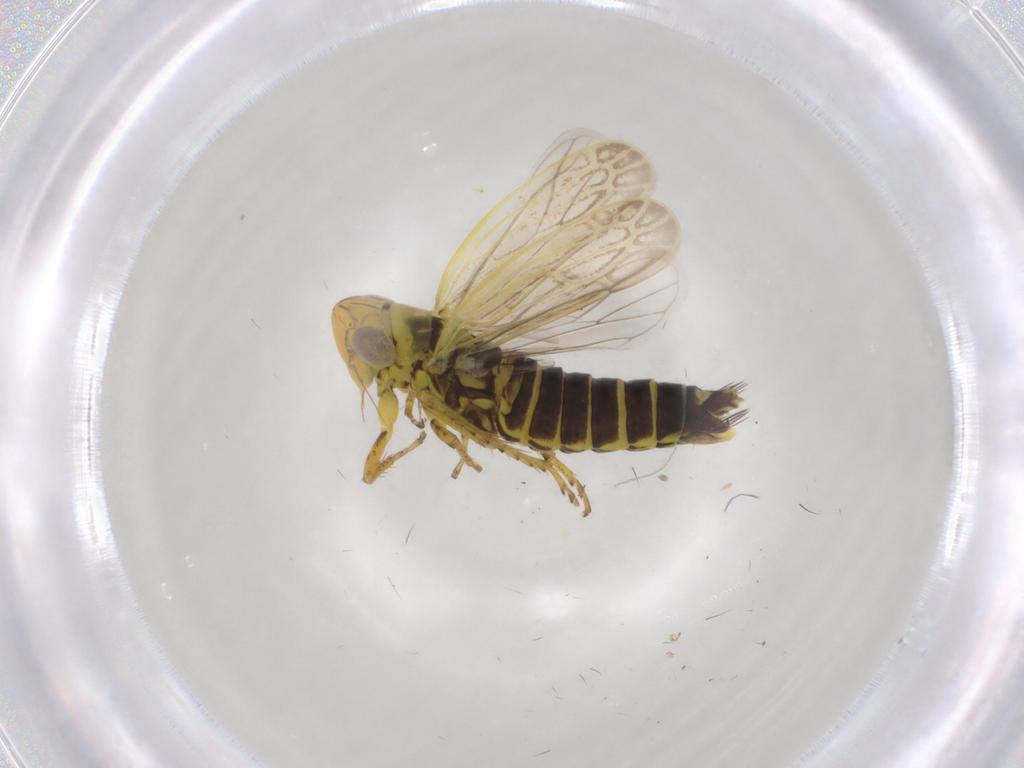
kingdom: Animalia
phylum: Arthropoda
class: Insecta
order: Hemiptera
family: Cicadellidae
